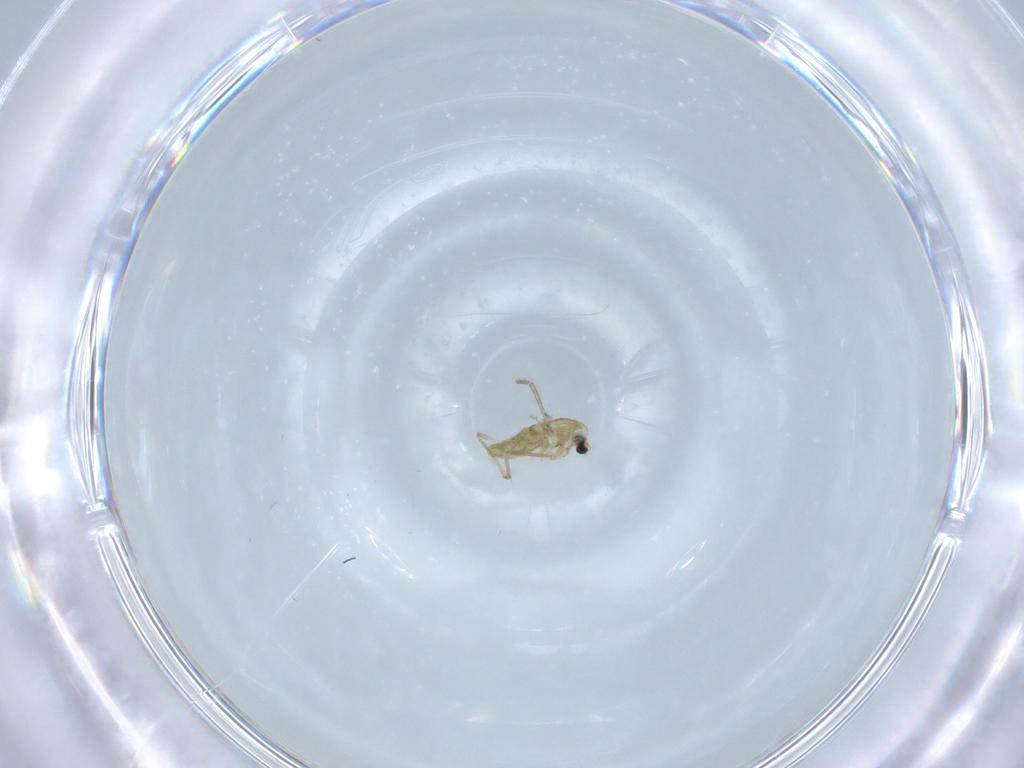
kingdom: Animalia
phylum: Arthropoda
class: Insecta
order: Diptera
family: Chironomidae
